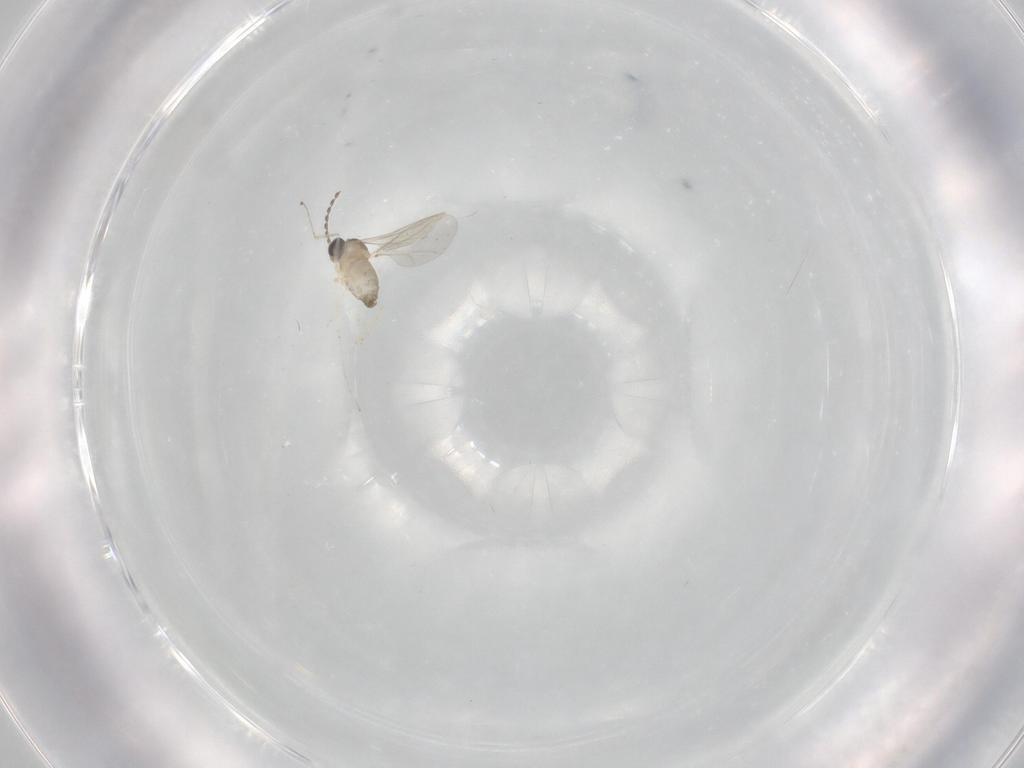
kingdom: Animalia
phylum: Arthropoda
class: Insecta
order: Diptera
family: Cecidomyiidae
